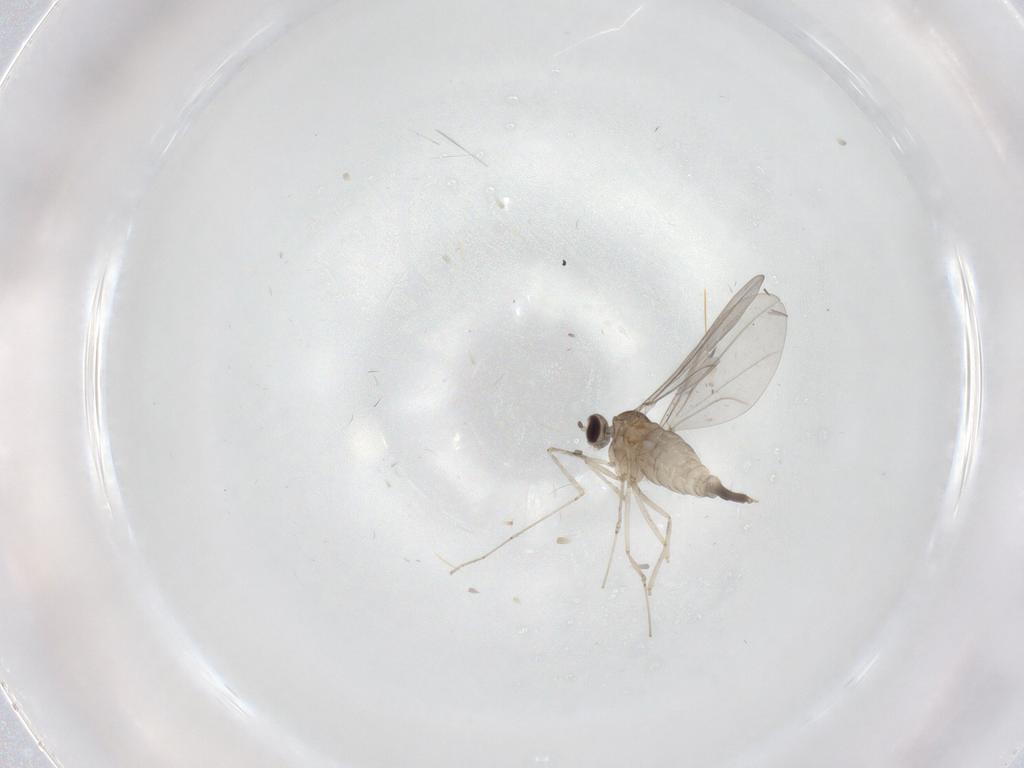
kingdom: Animalia
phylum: Arthropoda
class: Insecta
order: Diptera
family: Cecidomyiidae
